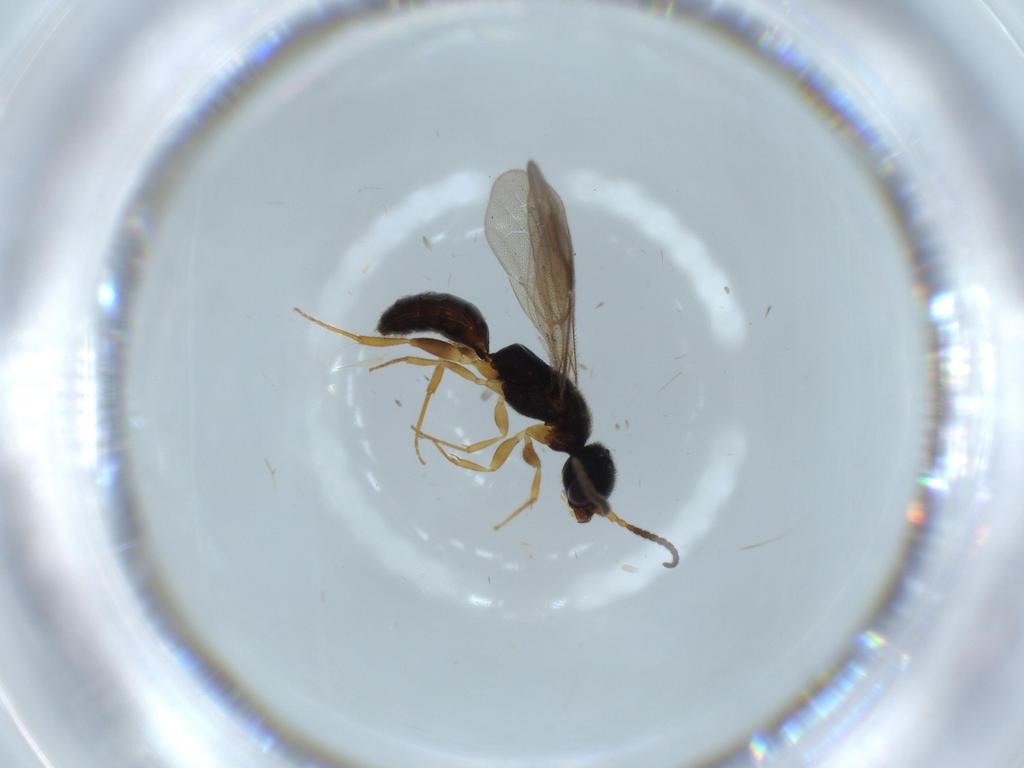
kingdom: Animalia
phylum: Arthropoda
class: Insecta
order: Hymenoptera
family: Bethylidae
